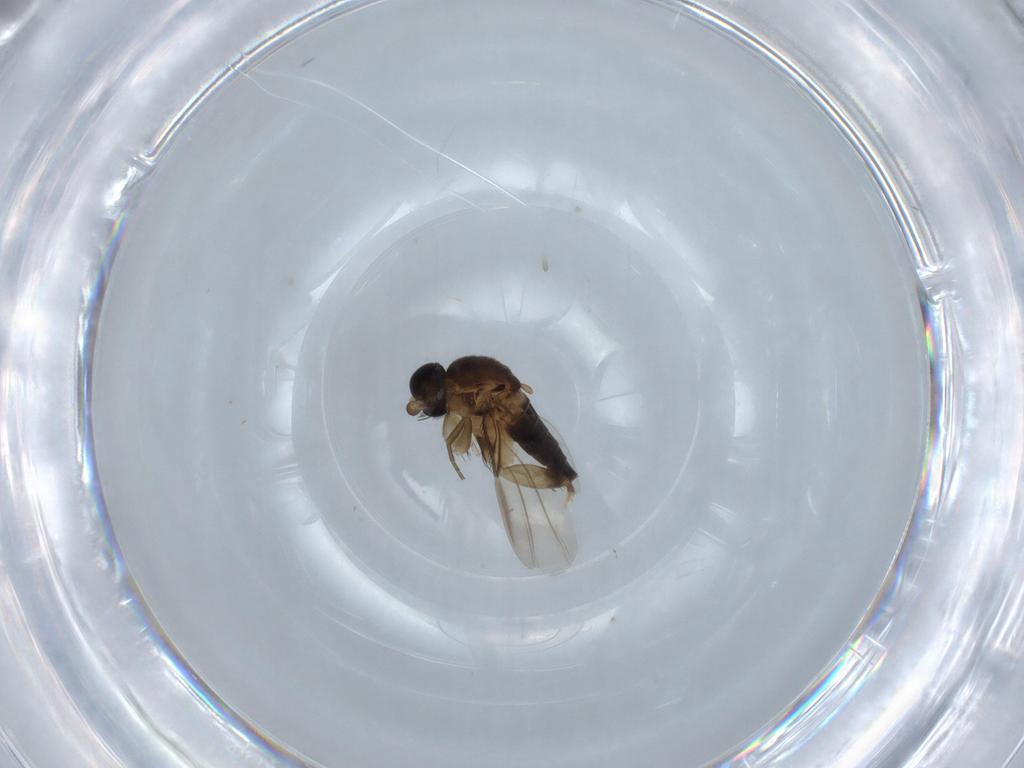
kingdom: Animalia
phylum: Arthropoda
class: Insecta
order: Diptera
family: Phoridae
